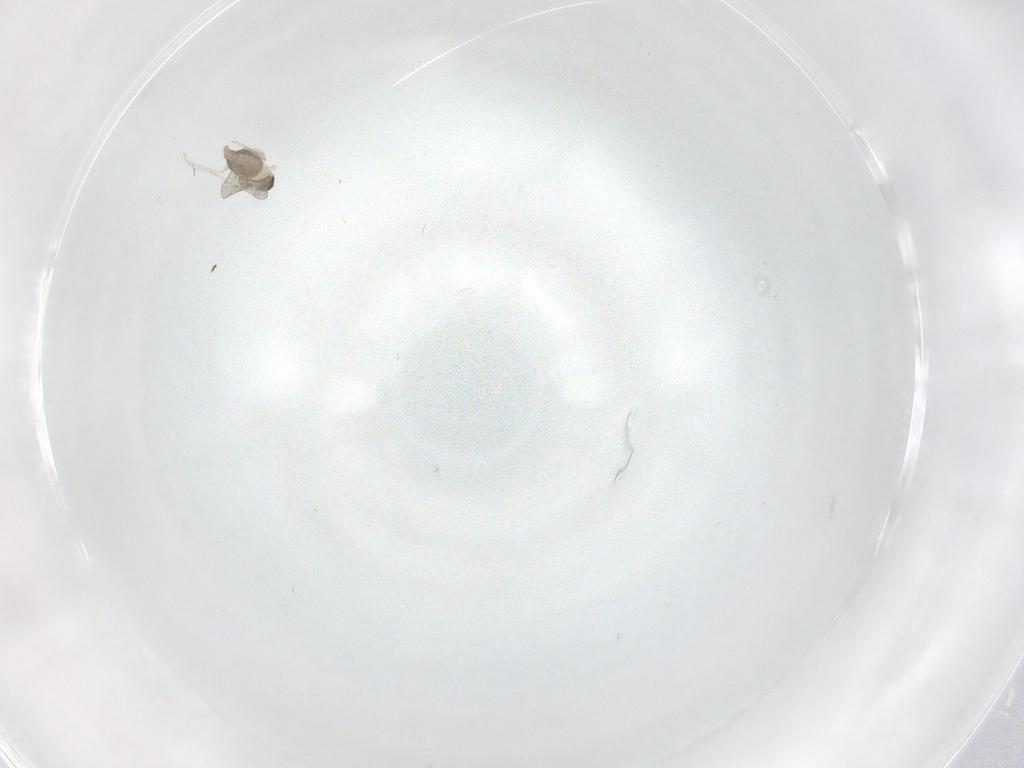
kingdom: Animalia
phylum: Arthropoda
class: Insecta
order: Diptera
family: Cecidomyiidae
